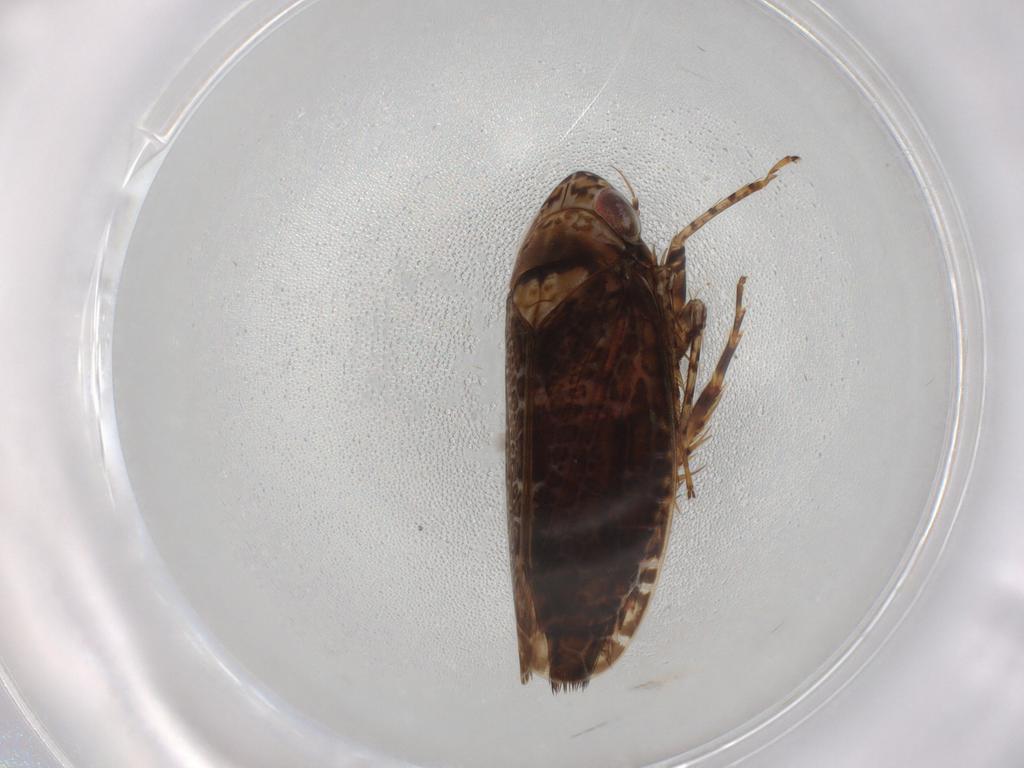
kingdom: Animalia
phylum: Arthropoda
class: Insecta
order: Hemiptera
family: Cicadellidae
